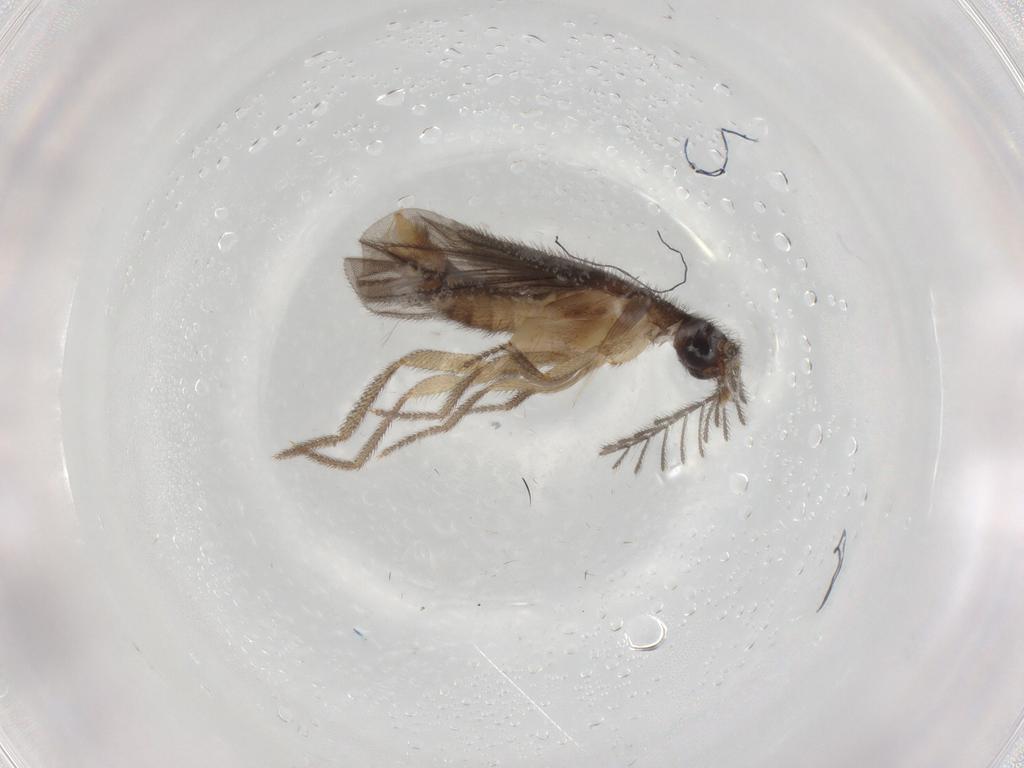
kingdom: Animalia
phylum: Arthropoda
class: Insecta
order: Coleoptera
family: Phengodidae
